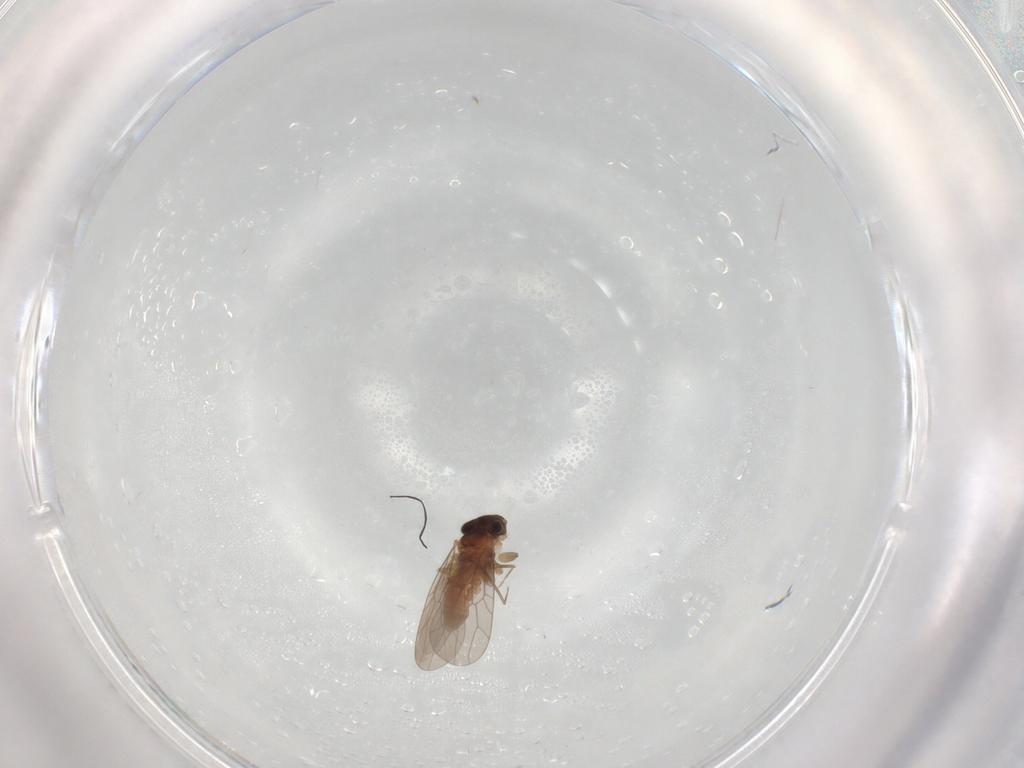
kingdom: Animalia
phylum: Arthropoda
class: Insecta
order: Psocodea
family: Lepidopsocidae
